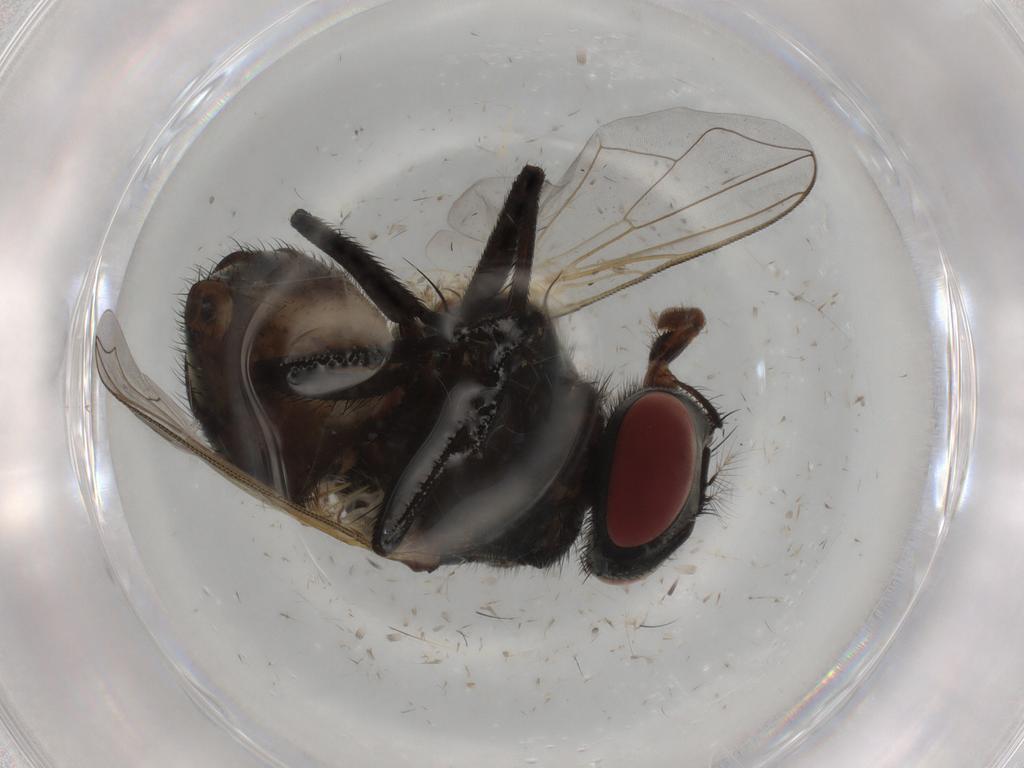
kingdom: Animalia
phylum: Arthropoda
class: Insecta
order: Diptera
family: Muscidae
